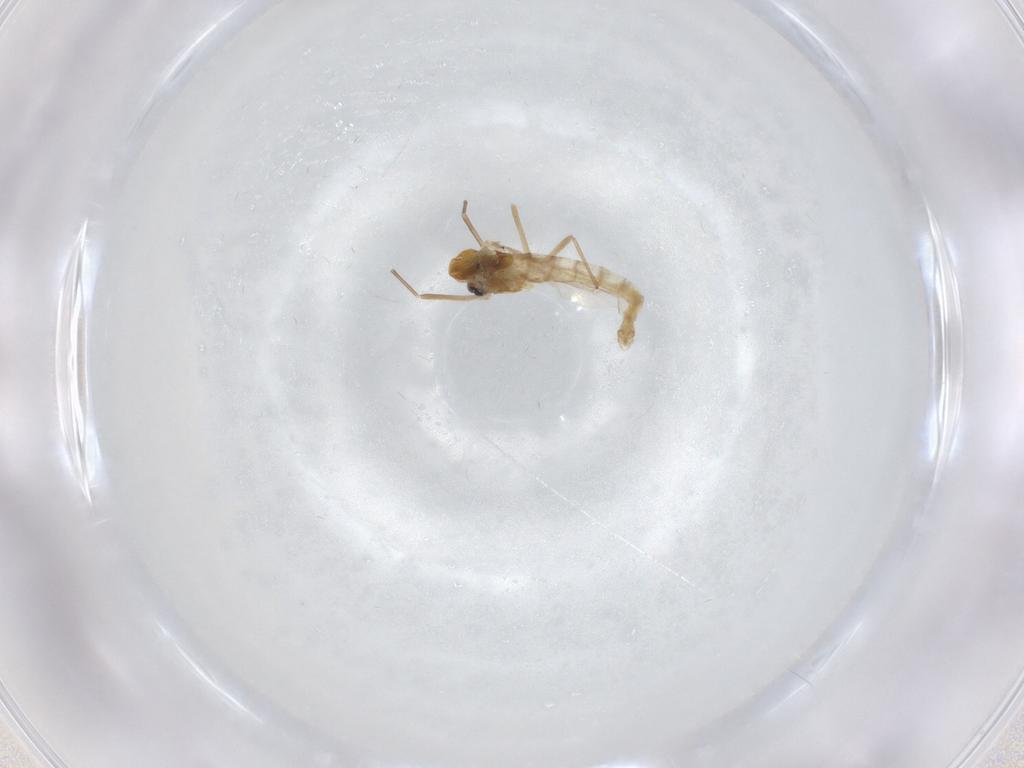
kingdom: Animalia
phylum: Arthropoda
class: Insecta
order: Diptera
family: Chironomidae
